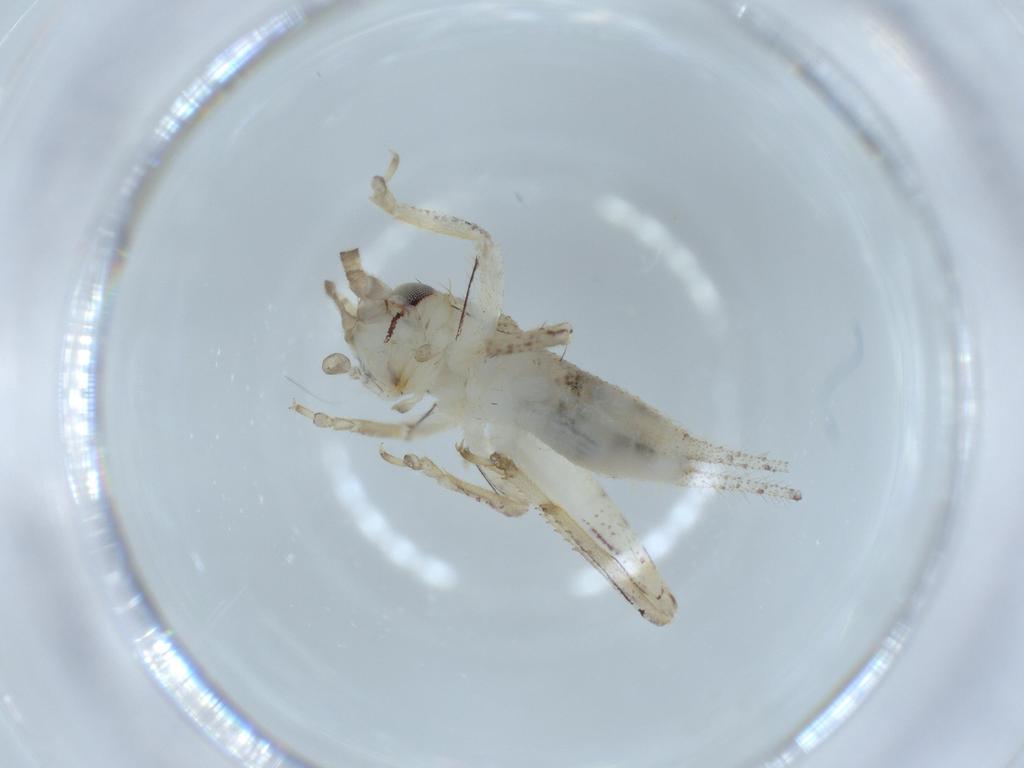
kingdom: Animalia
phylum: Arthropoda
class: Insecta
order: Orthoptera
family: Gryllidae
